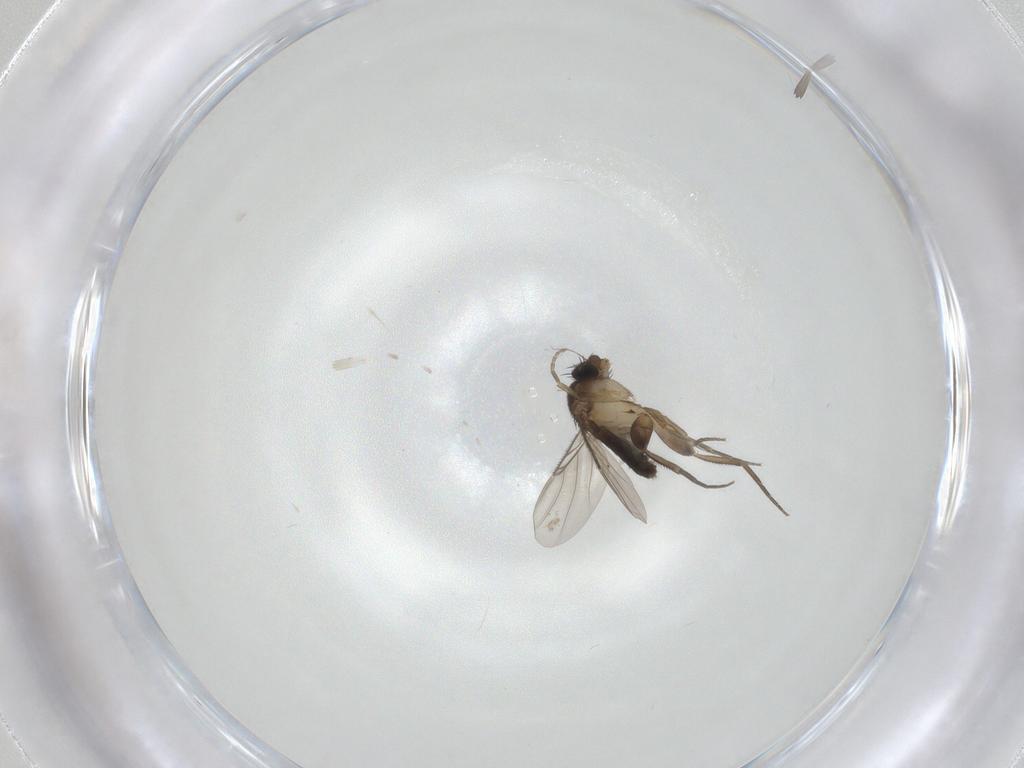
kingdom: Animalia
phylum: Arthropoda
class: Insecta
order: Diptera
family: Phoridae
